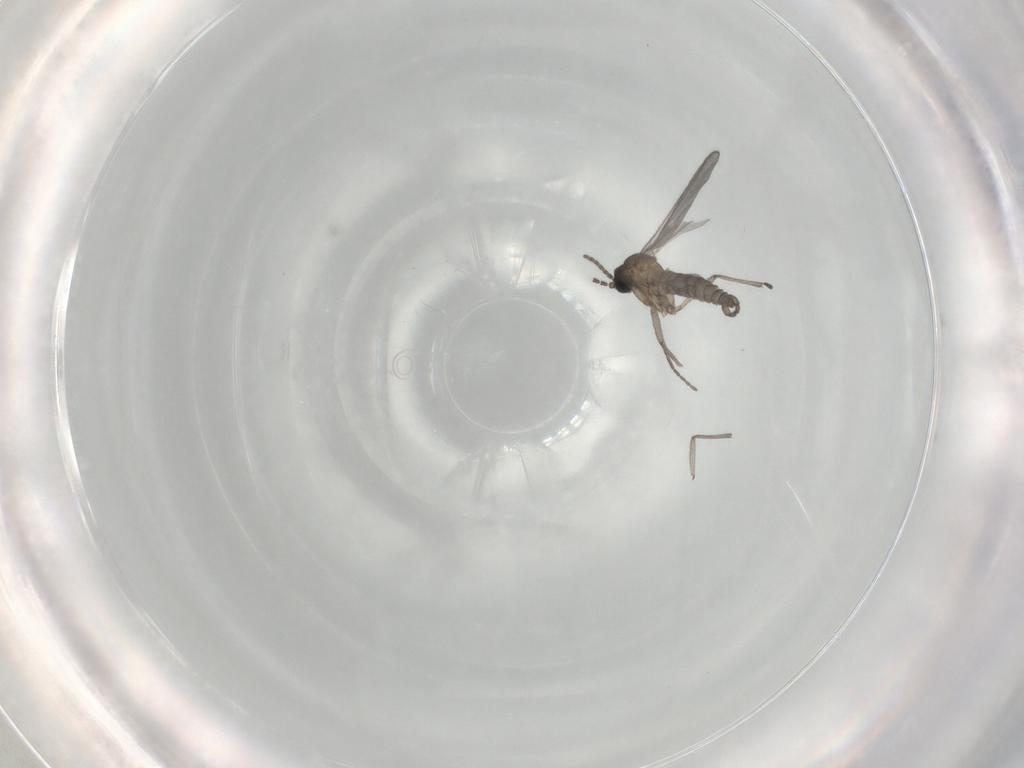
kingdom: Animalia
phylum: Arthropoda
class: Insecta
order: Diptera
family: Sciaridae
